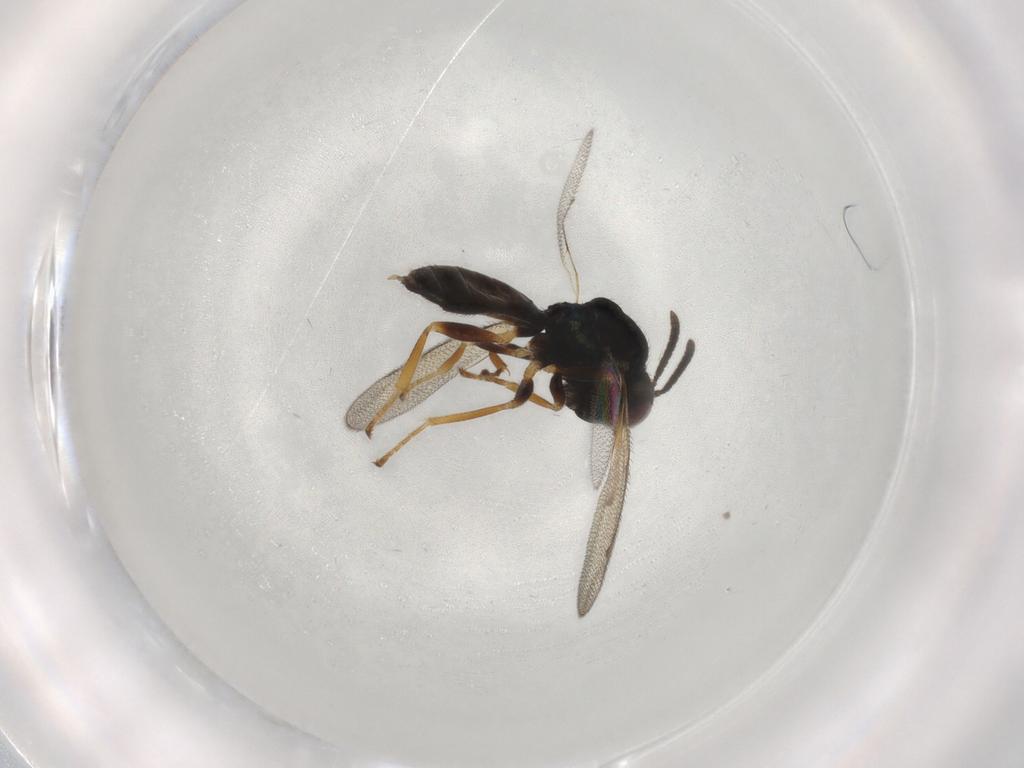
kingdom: Animalia
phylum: Arthropoda
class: Insecta
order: Hymenoptera
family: Pteromalidae
